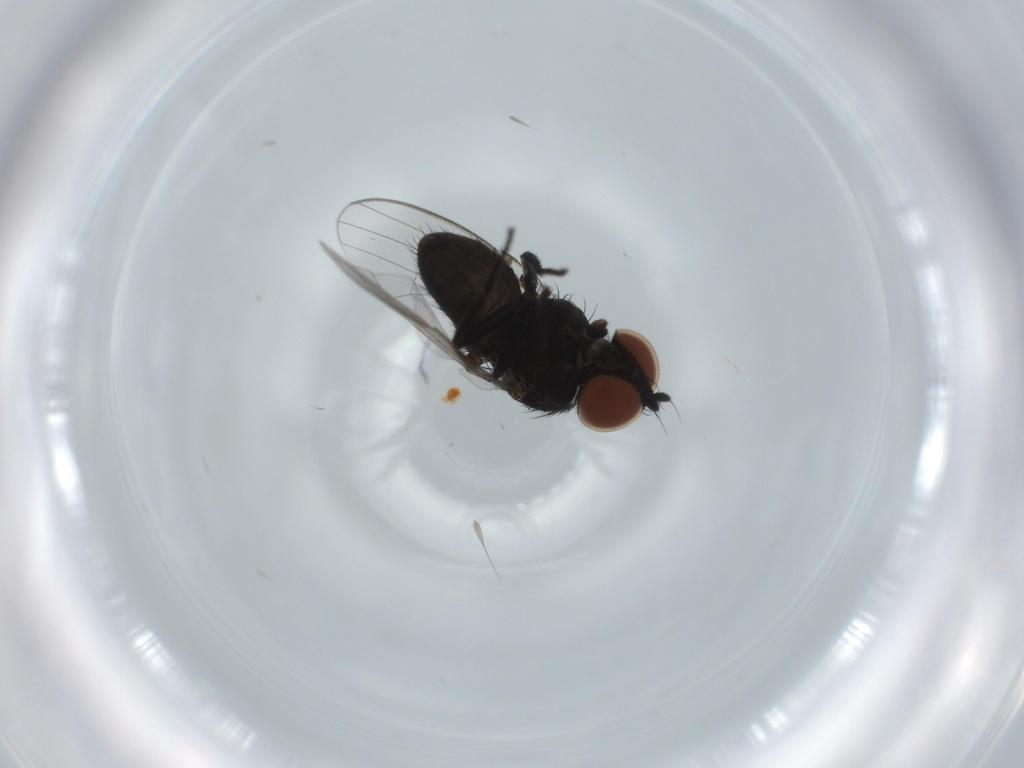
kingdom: Animalia
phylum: Arthropoda
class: Insecta
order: Diptera
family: Milichiidae
